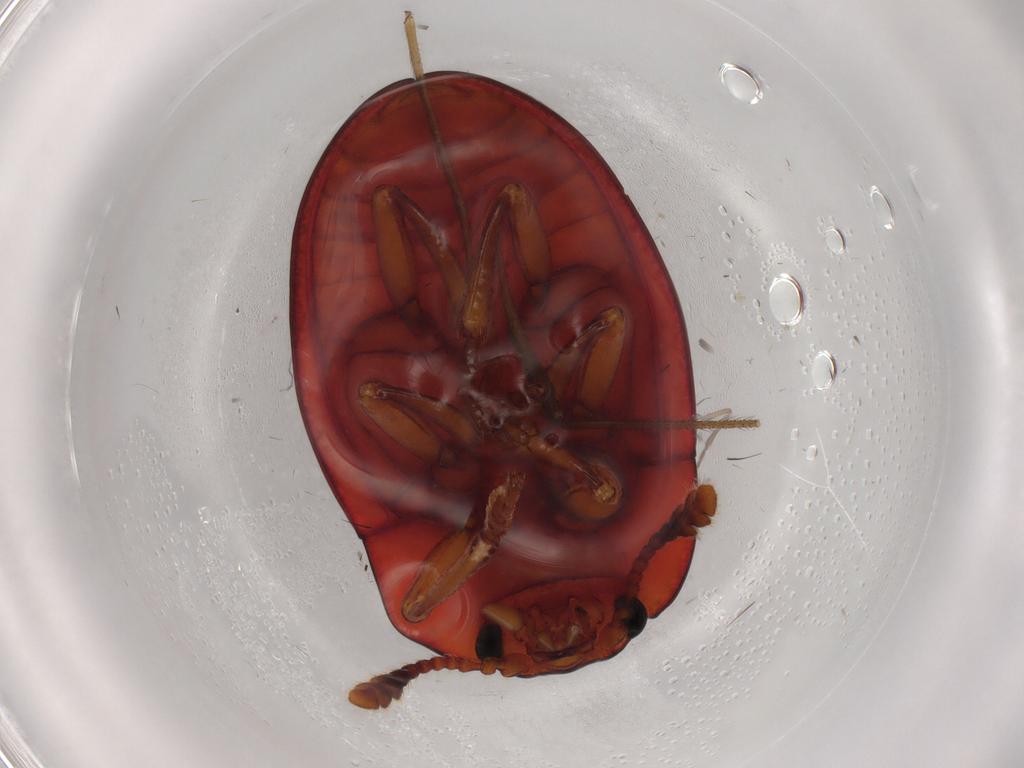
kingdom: Animalia
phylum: Arthropoda
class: Insecta
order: Coleoptera
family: Erotylidae
